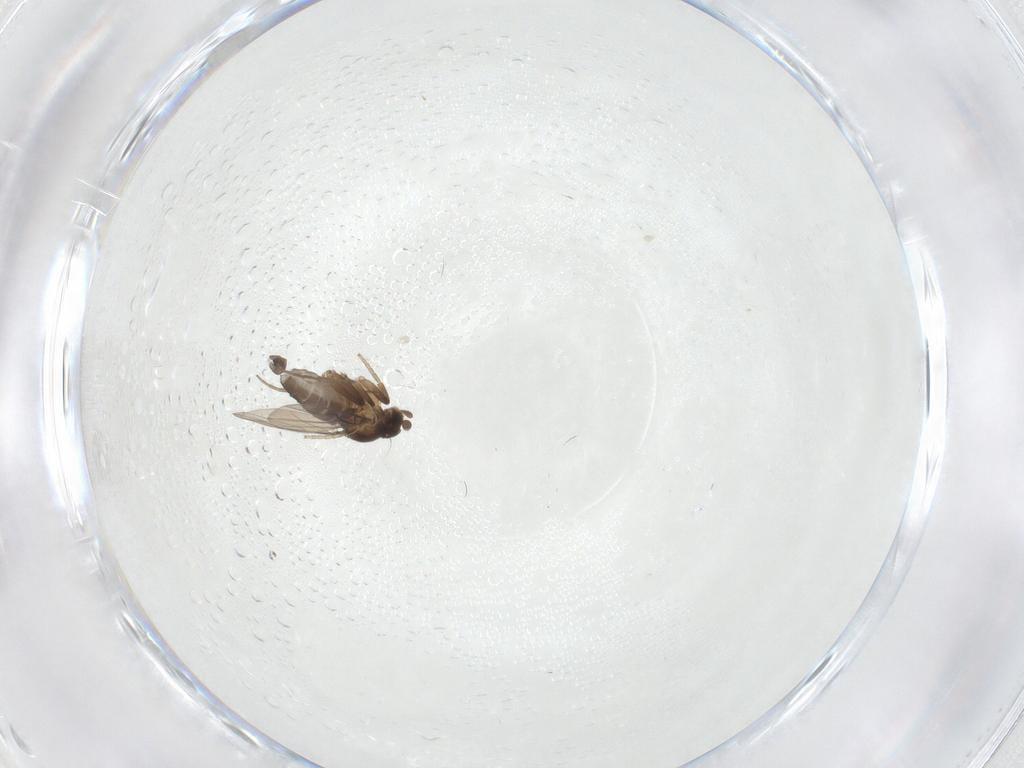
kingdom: Animalia
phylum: Arthropoda
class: Insecta
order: Diptera
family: Phoridae
